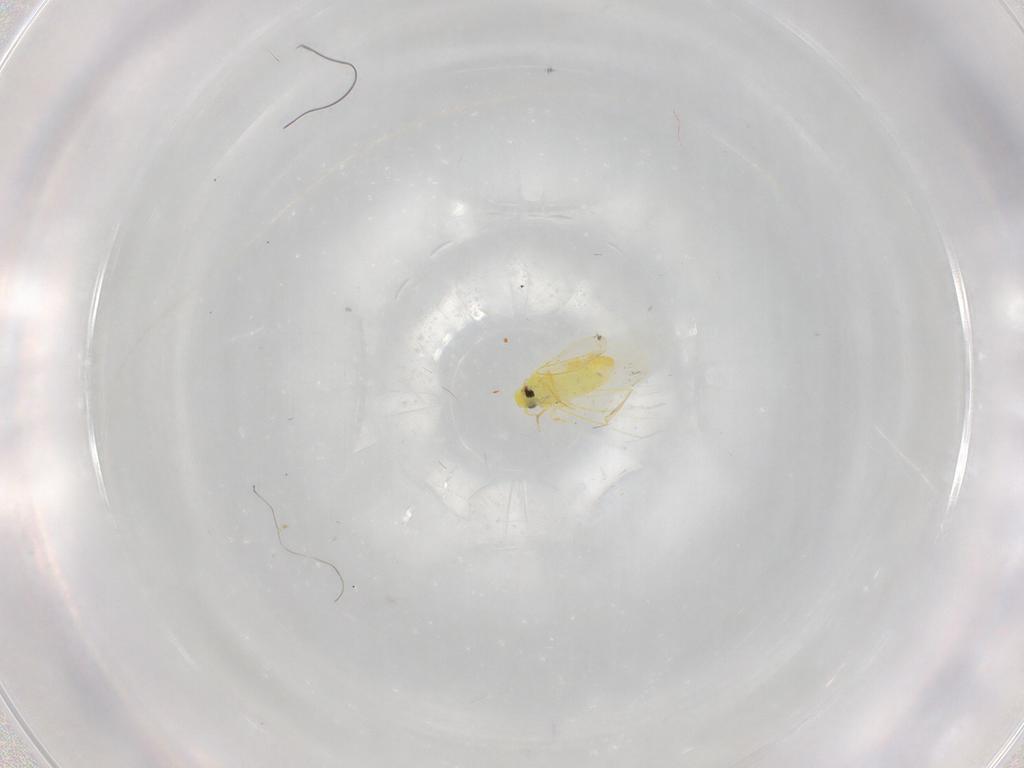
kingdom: Animalia
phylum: Arthropoda
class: Insecta
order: Hemiptera
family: Aleyrodidae
